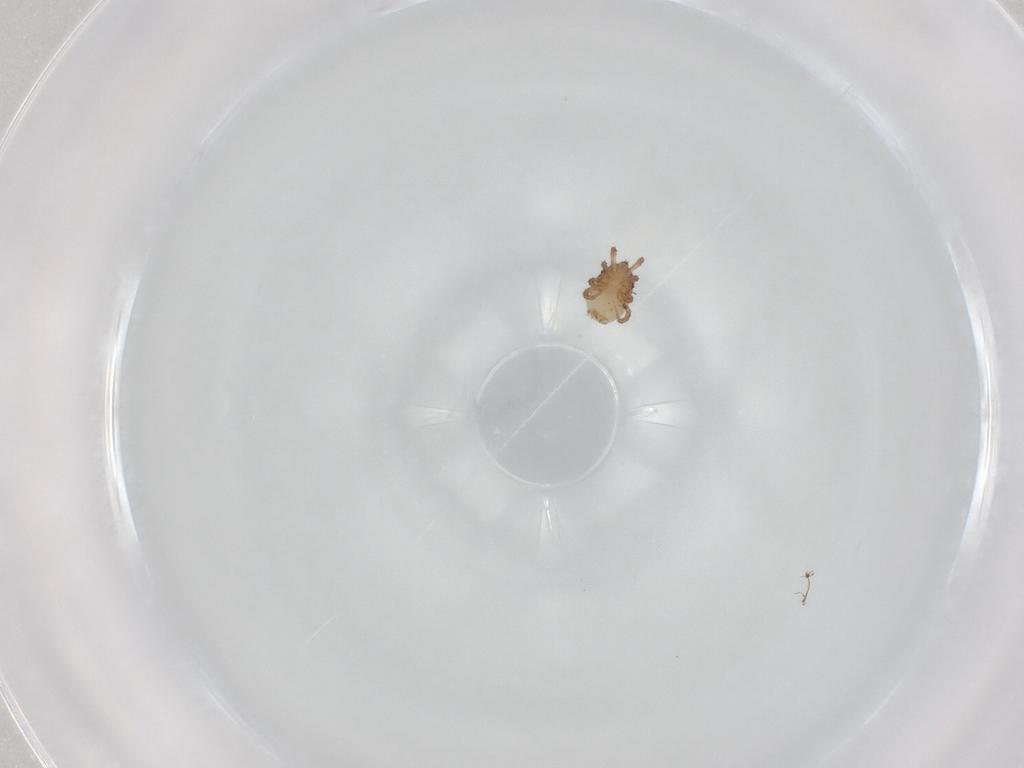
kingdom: Animalia
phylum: Arthropoda
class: Arachnida
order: Mesostigmata
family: Ameroseiidae
